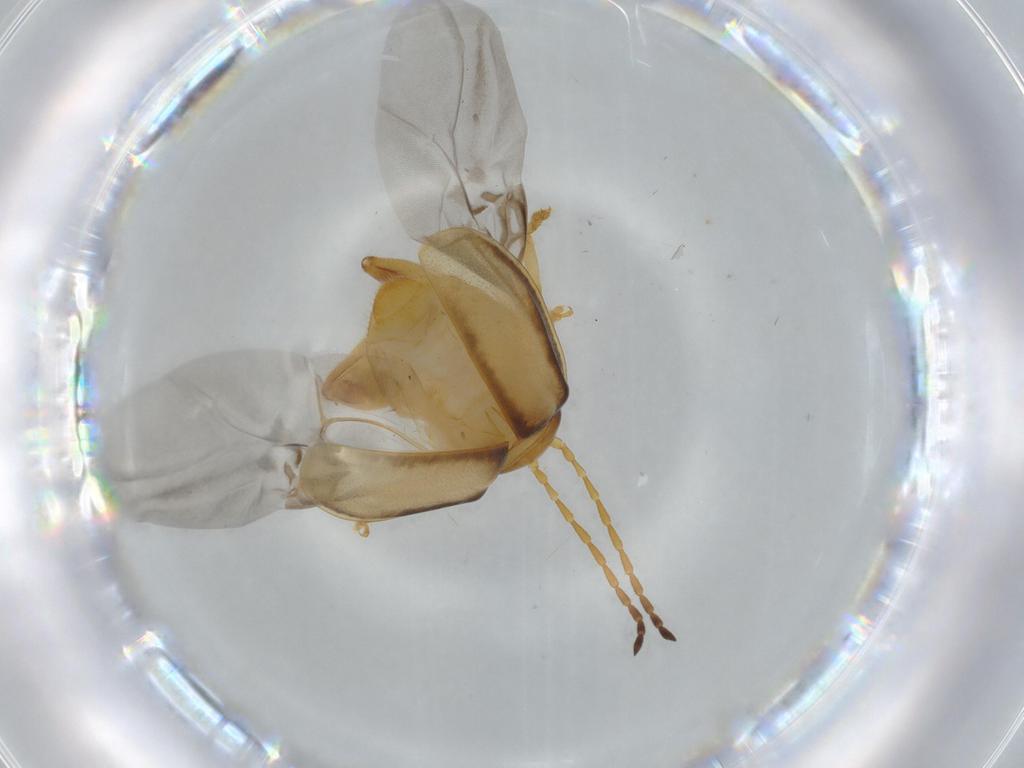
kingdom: Animalia
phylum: Arthropoda
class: Insecta
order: Coleoptera
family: Chrysomelidae
